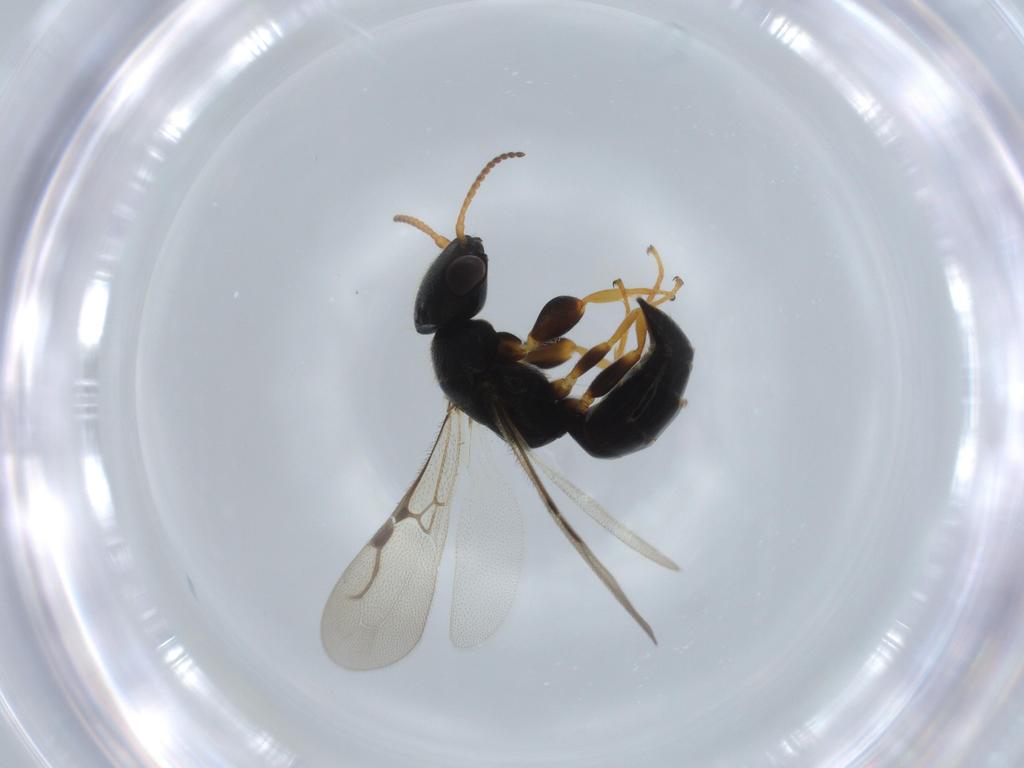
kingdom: Animalia
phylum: Arthropoda
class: Insecta
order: Hymenoptera
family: Bethylidae
